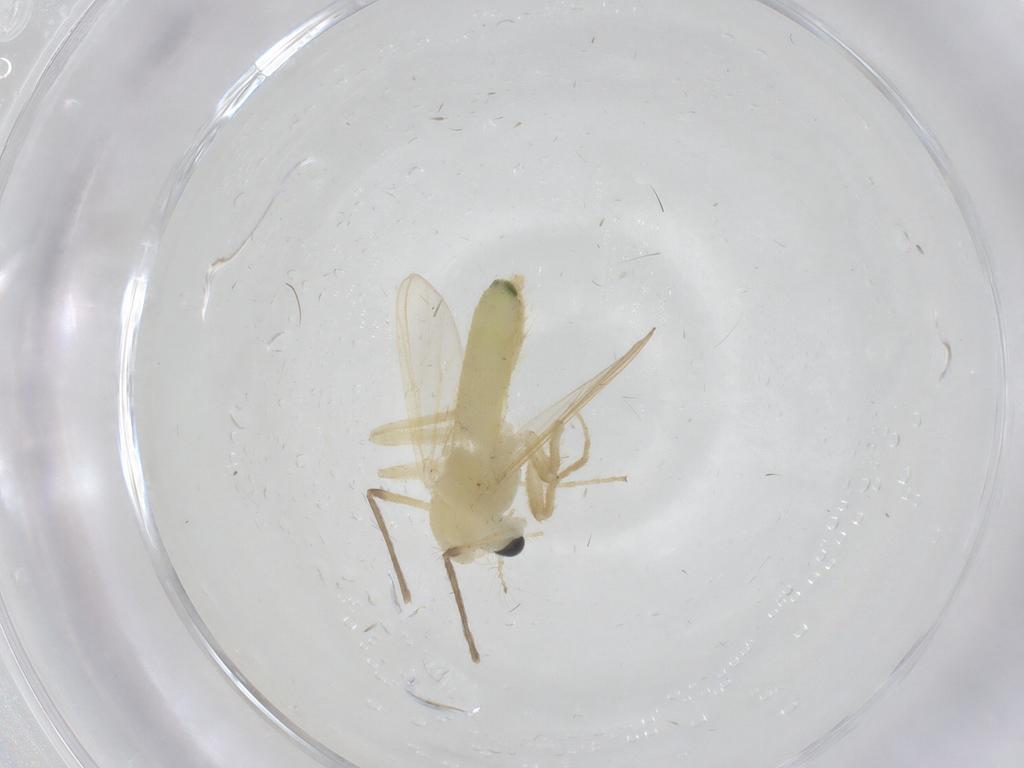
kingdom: Animalia
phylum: Arthropoda
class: Insecta
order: Diptera
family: Chironomidae
